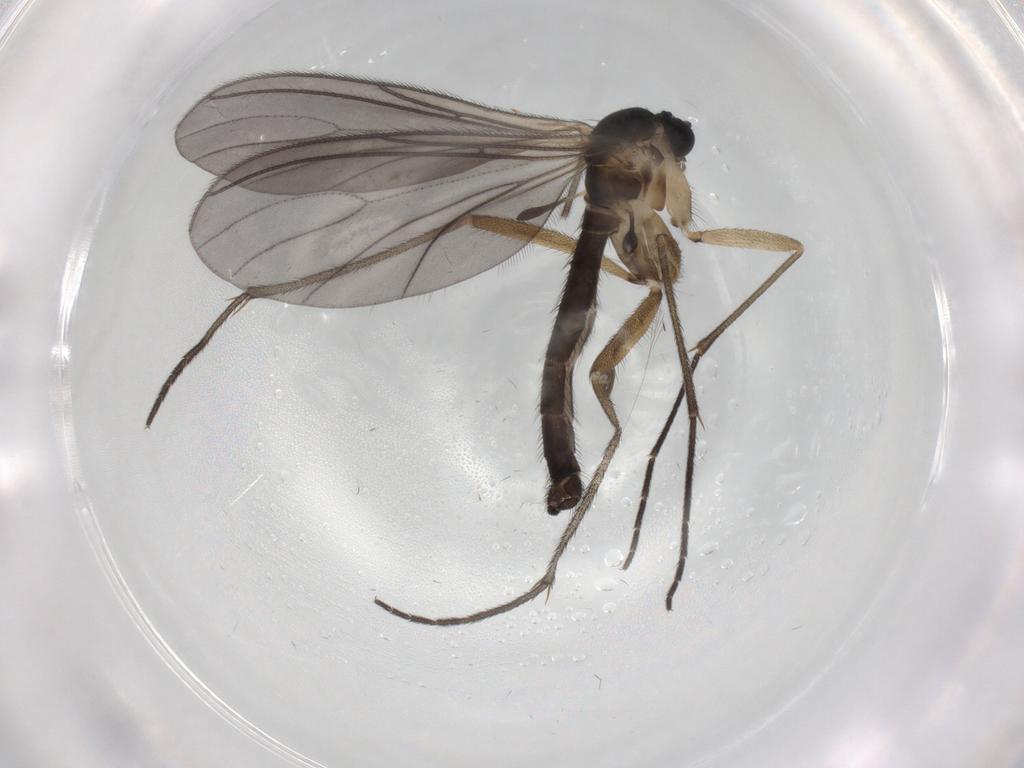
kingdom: Animalia
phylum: Arthropoda
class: Insecta
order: Diptera
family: Sciaridae
